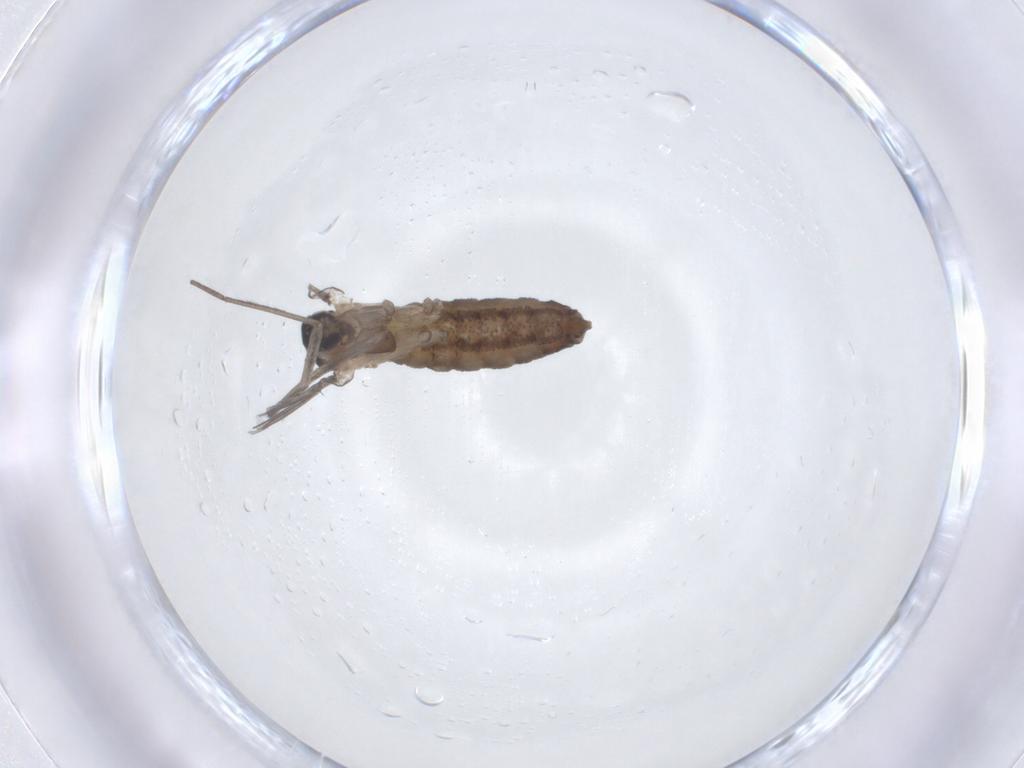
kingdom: Animalia
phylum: Arthropoda
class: Insecta
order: Diptera
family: Cecidomyiidae
